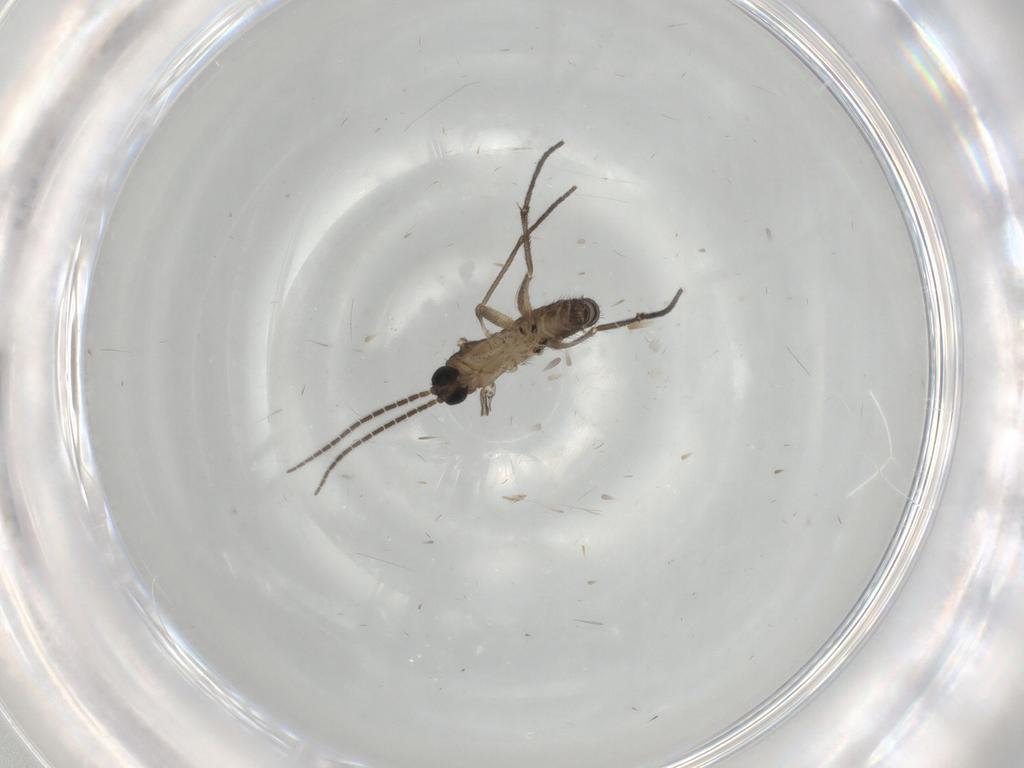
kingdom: Animalia
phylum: Arthropoda
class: Insecta
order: Diptera
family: Sciaridae
